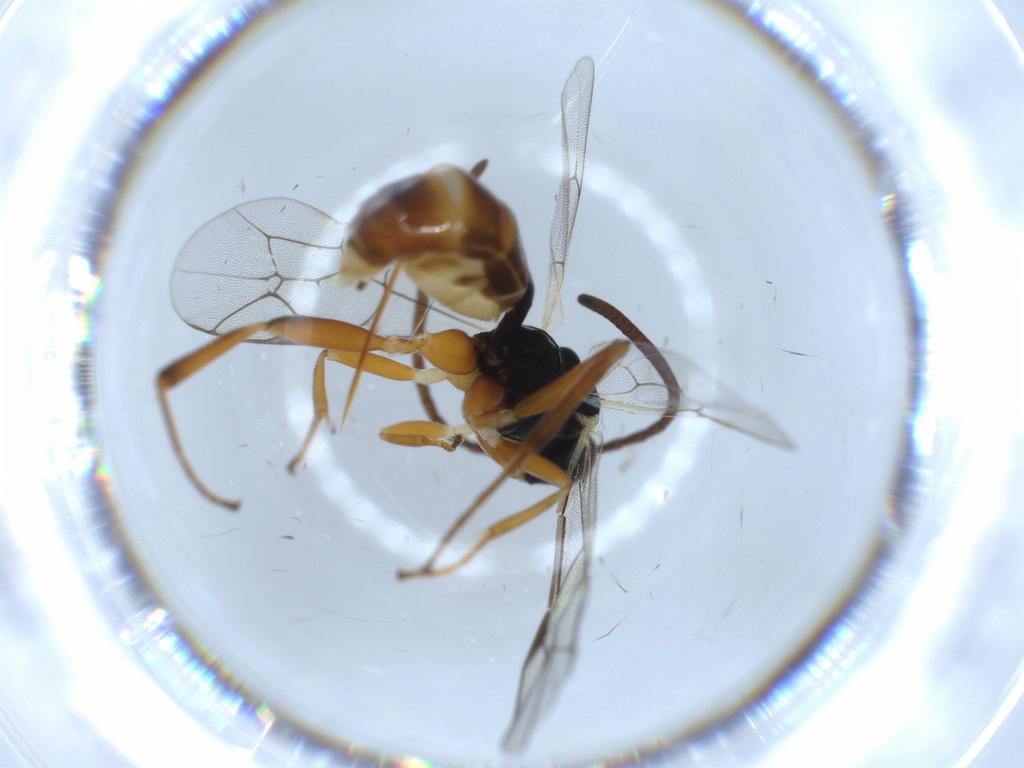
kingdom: Animalia
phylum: Arthropoda
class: Insecta
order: Hymenoptera
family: Ichneumonidae
